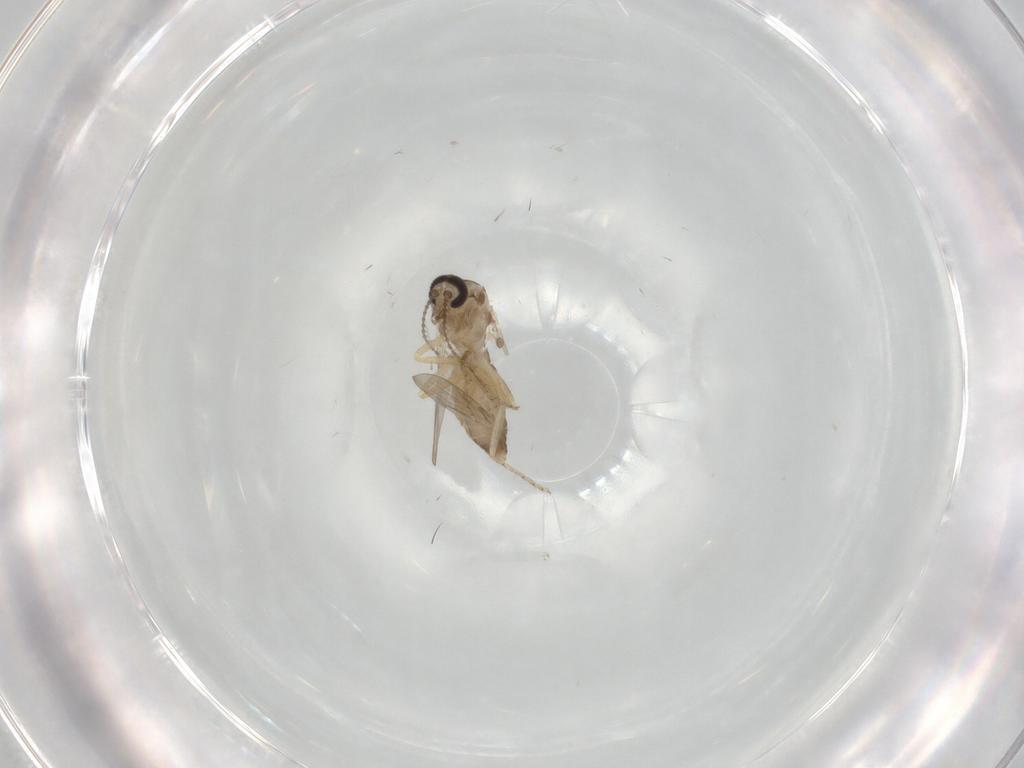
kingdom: Animalia
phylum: Arthropoda
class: Insecta
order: Diptera
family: Ceratopogonidae
